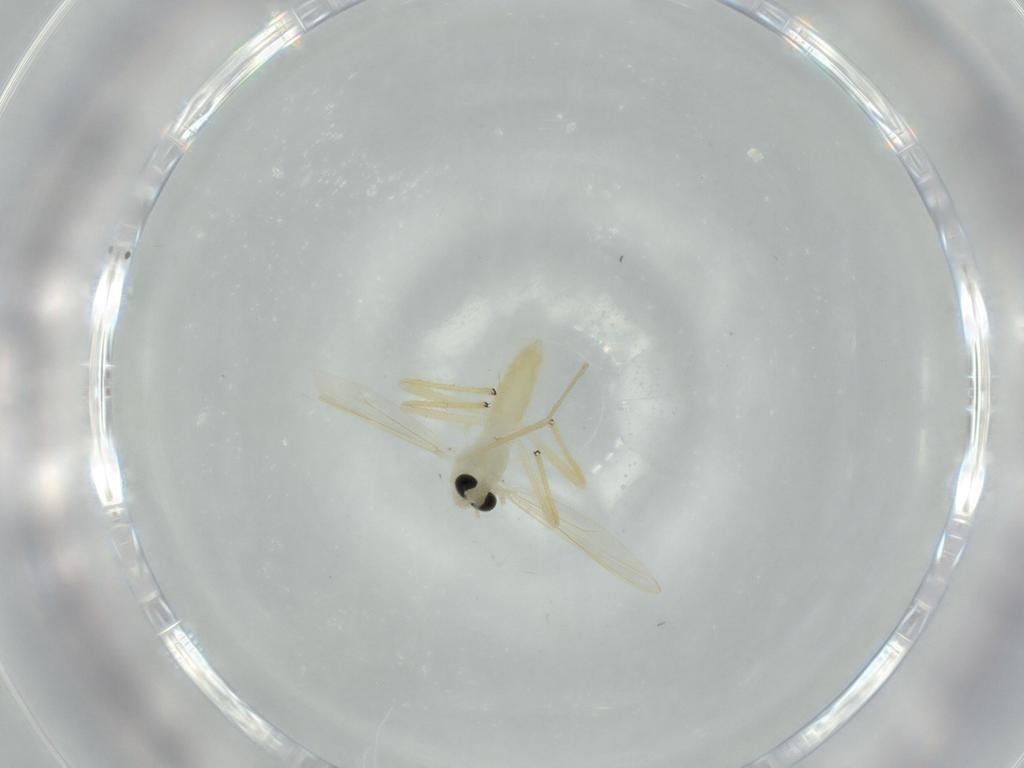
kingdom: Animalia
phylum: Arthropoda
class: Insecta
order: Diptera
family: Chironomidae
